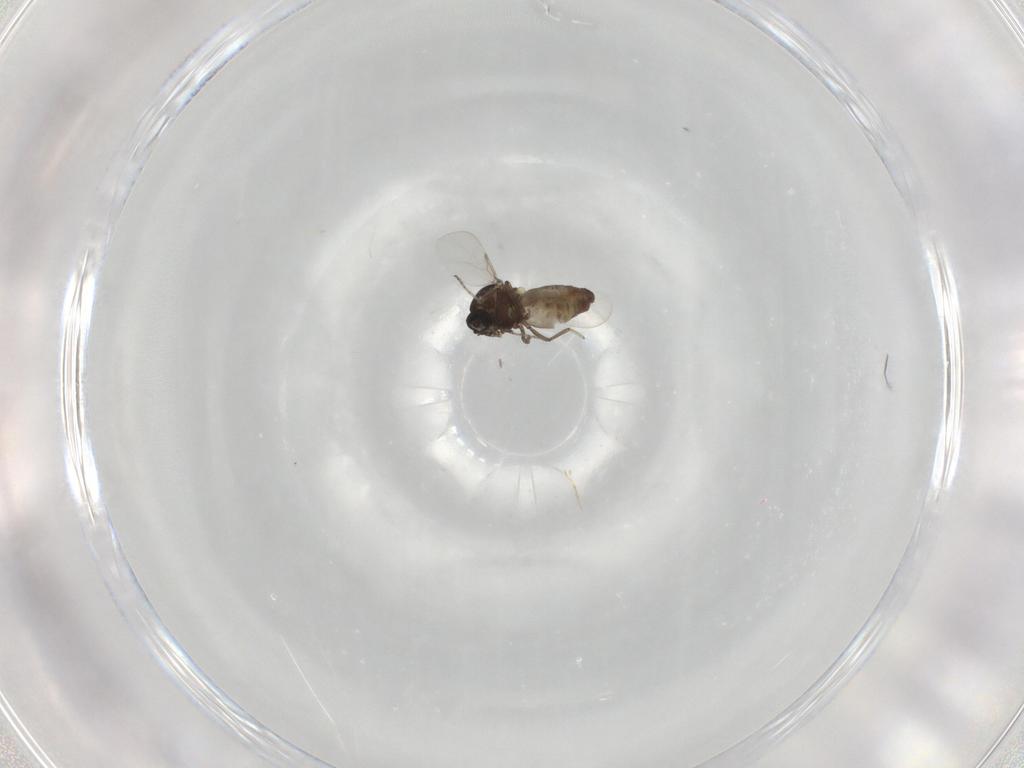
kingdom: Animalia
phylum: Arthropoda
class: Insecta
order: Diptera
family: Ceratopogonidae
